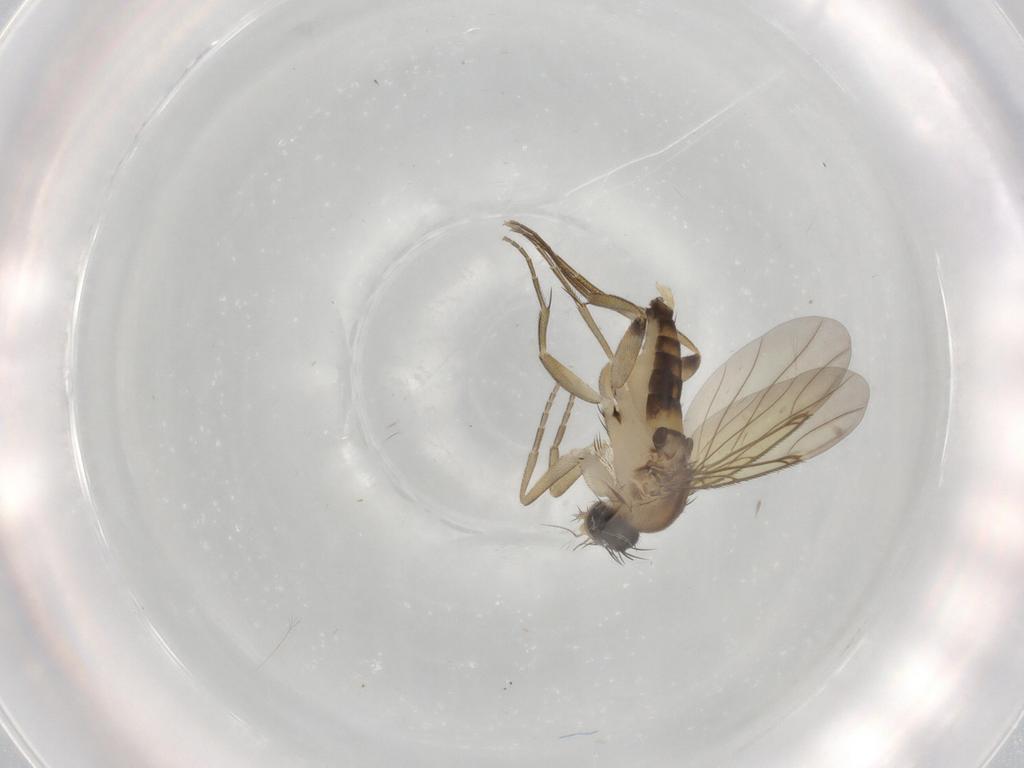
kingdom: Animalia
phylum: Arthropoda
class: Insecta
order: Diptera
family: Phoridae
